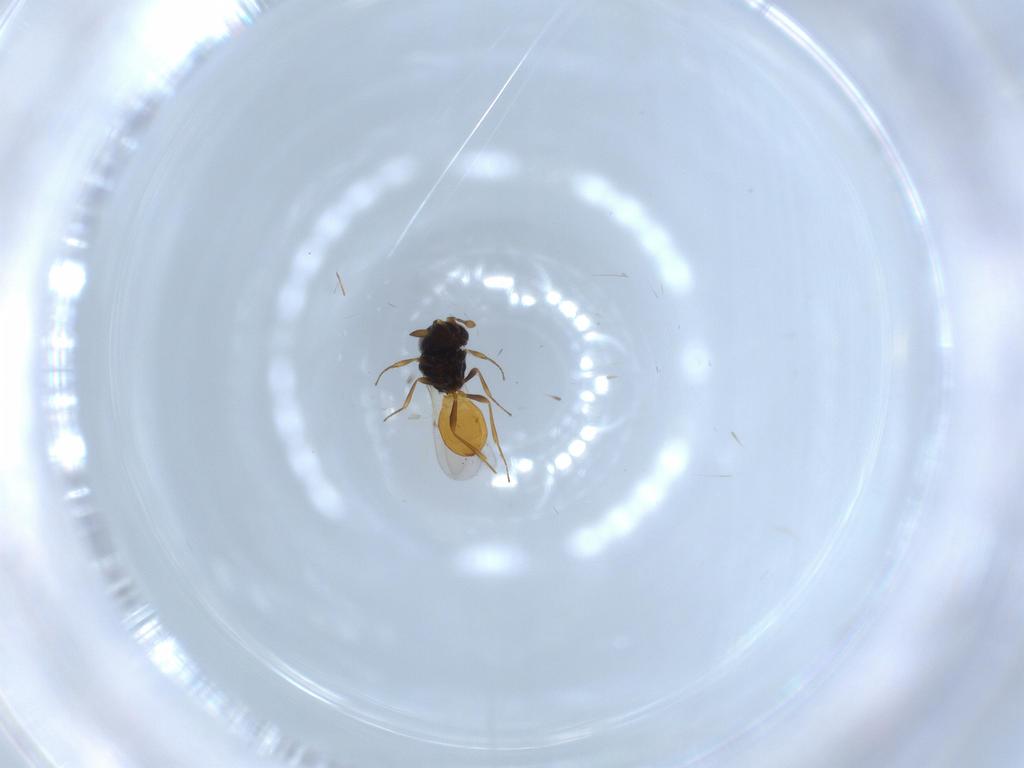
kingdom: Animalia
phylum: Arthropoda
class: Insecta
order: Hymenoptera
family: Scelionidae
